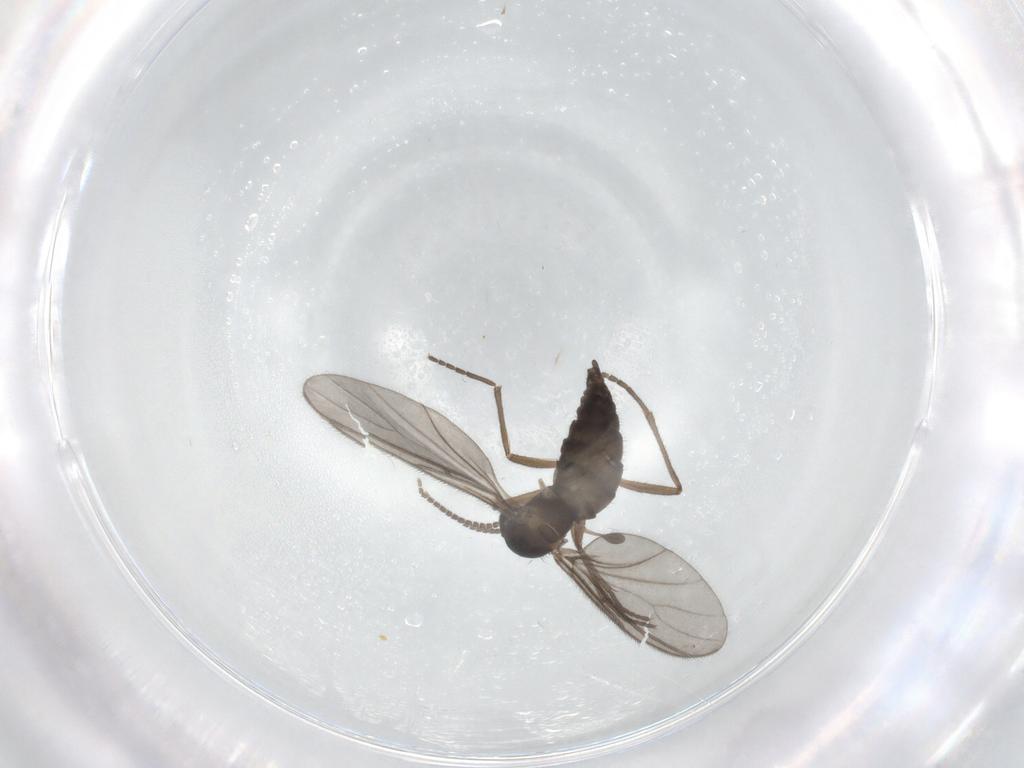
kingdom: Animalia
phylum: Arthropoda
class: Insecta
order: Diptera
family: Sciaridae
